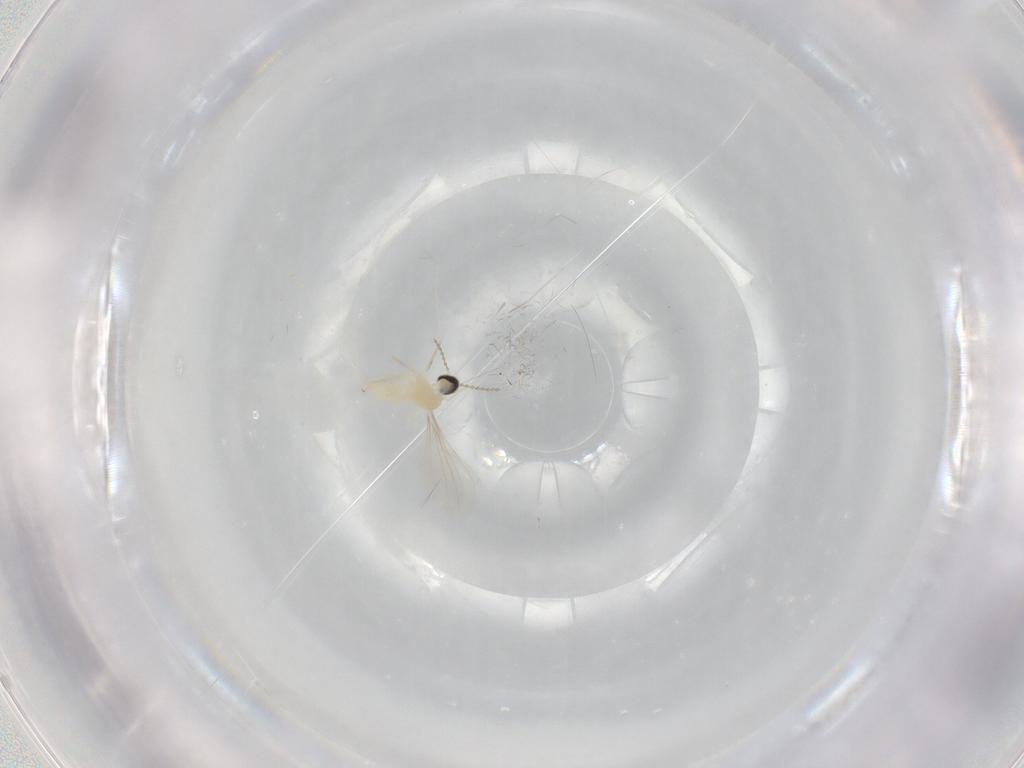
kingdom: Animalia
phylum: Arthropoda
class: Insecta
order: Diptera
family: Cecidomyiidae
